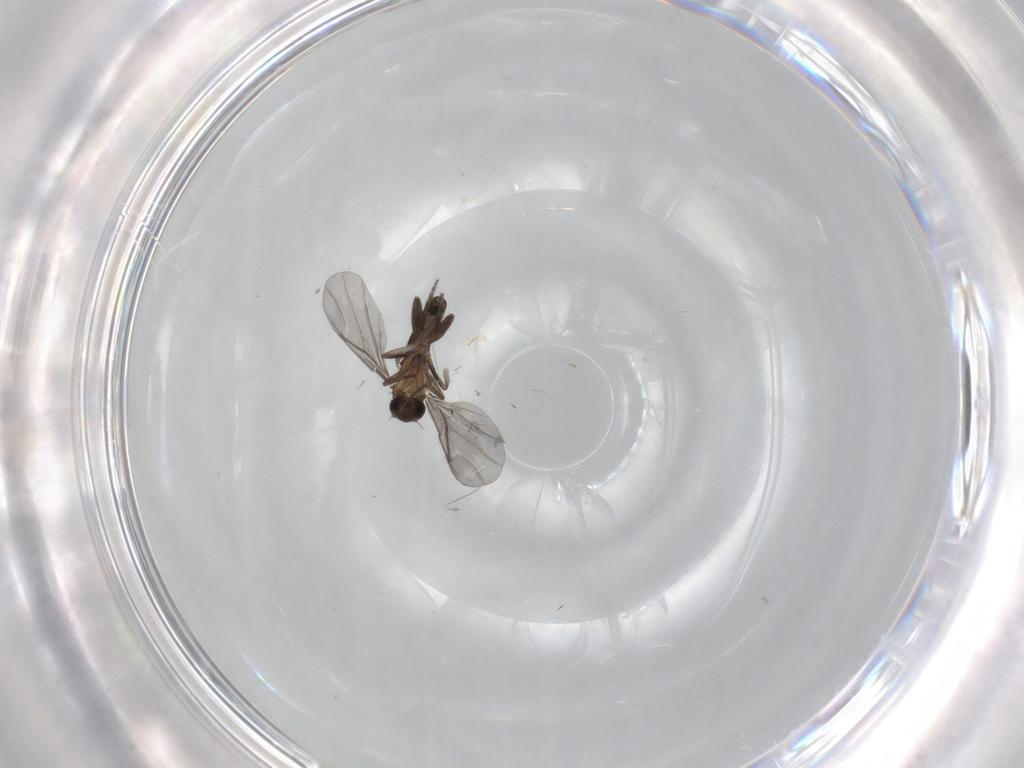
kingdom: Animalia
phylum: Arthropoda
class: Insecta
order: Diptera
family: Phoridae
